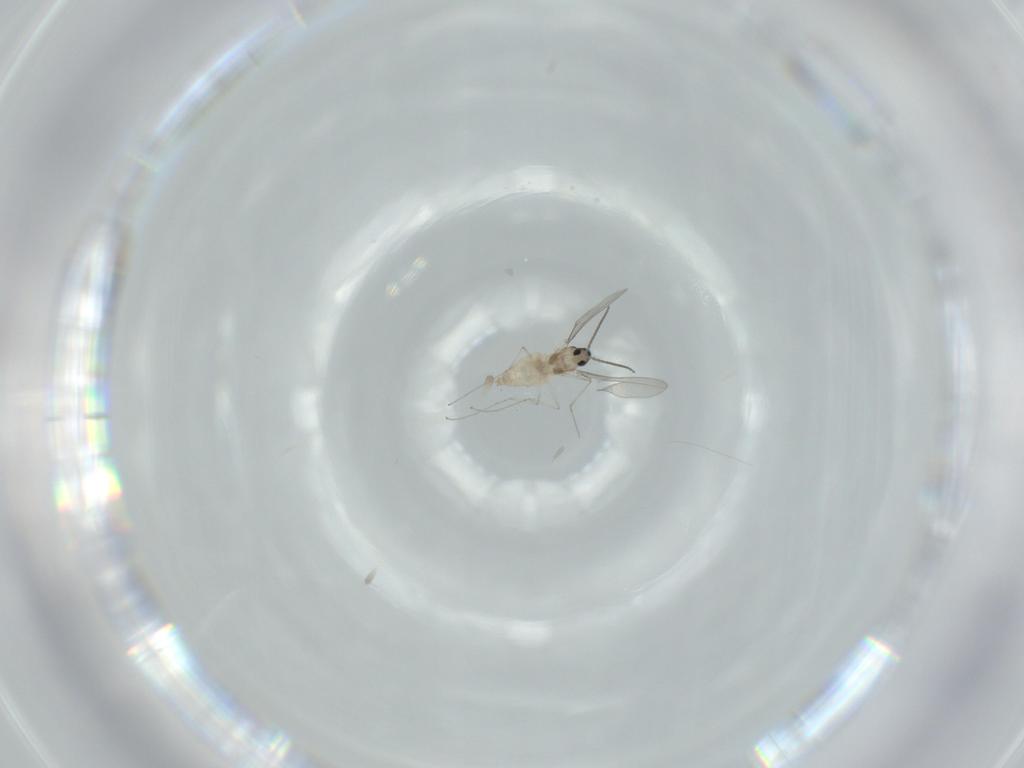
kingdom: Animalia
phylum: Arthropoda
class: Insecta
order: Diptera
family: Cecidomyiidae
